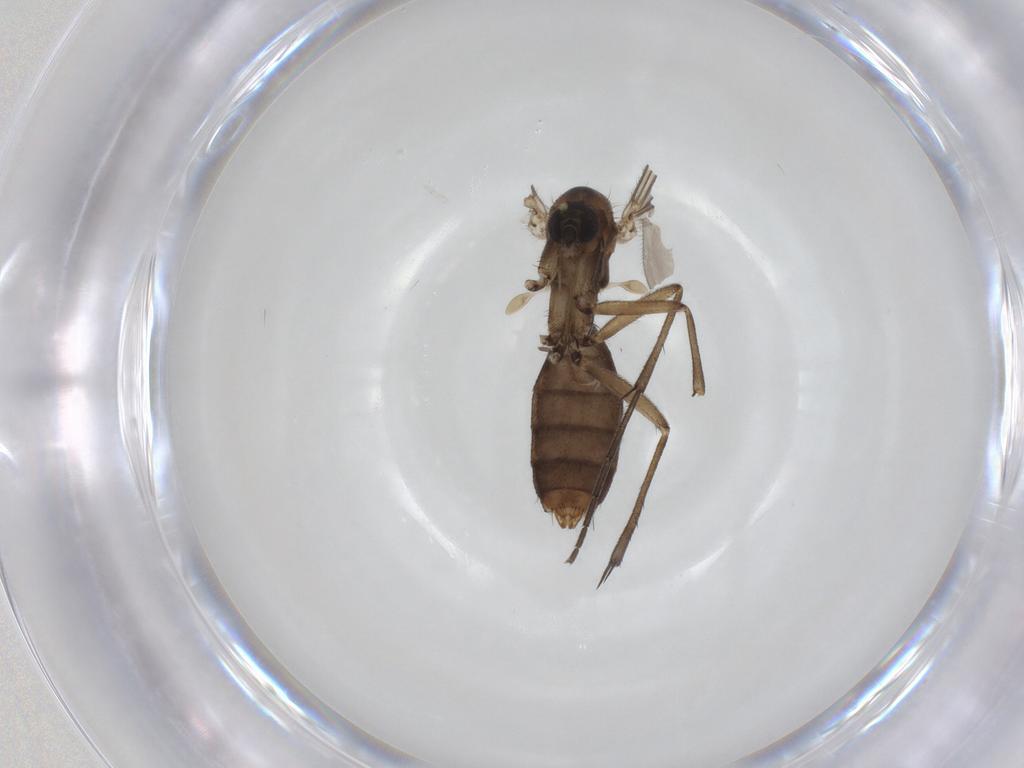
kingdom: Animalia
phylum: Arthropoda
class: Insecta
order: Diptera
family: Mycetophilidae
